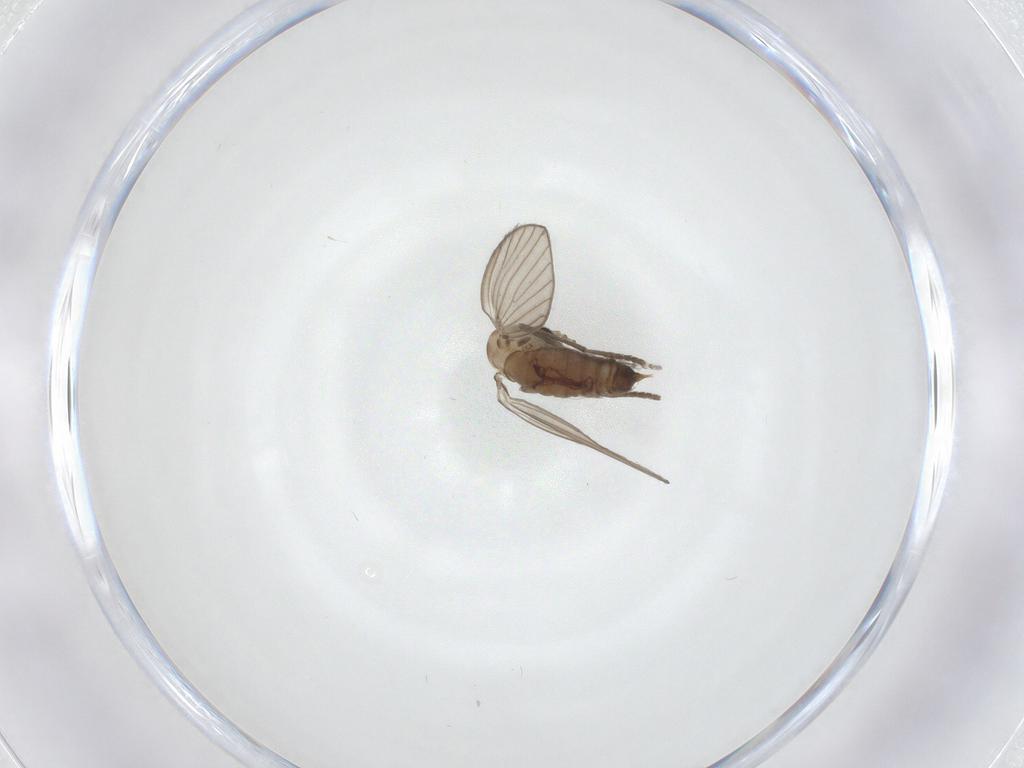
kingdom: Animalia
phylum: Arthropoda
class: Insecta
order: Diptera
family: Psychodidae
